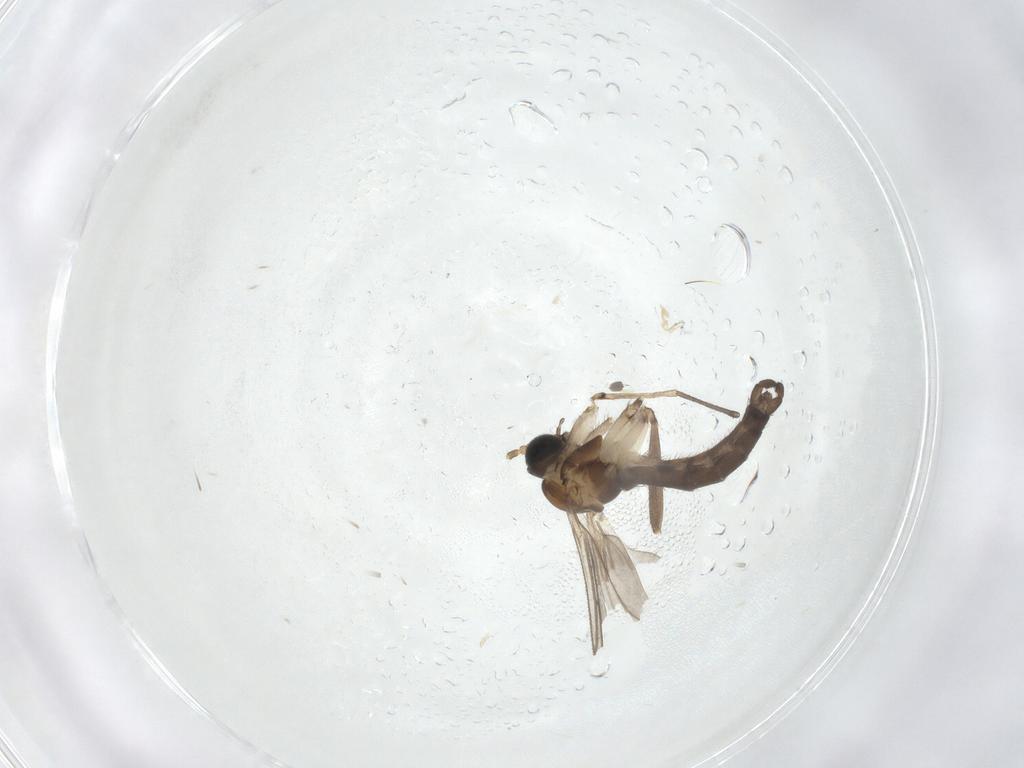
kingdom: Animalia
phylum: Arthropoda
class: Insecta
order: Diptera
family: Sciaridae
